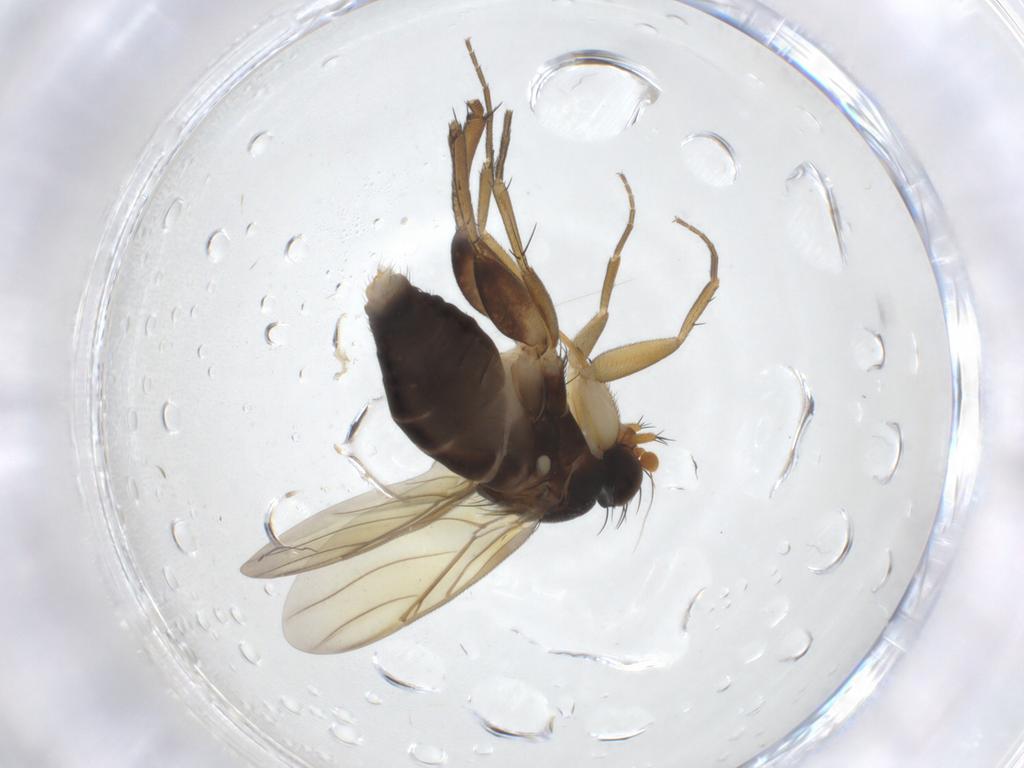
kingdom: Animalia
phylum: Arthropoda
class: Insecta
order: Diptera
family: Phoridae
